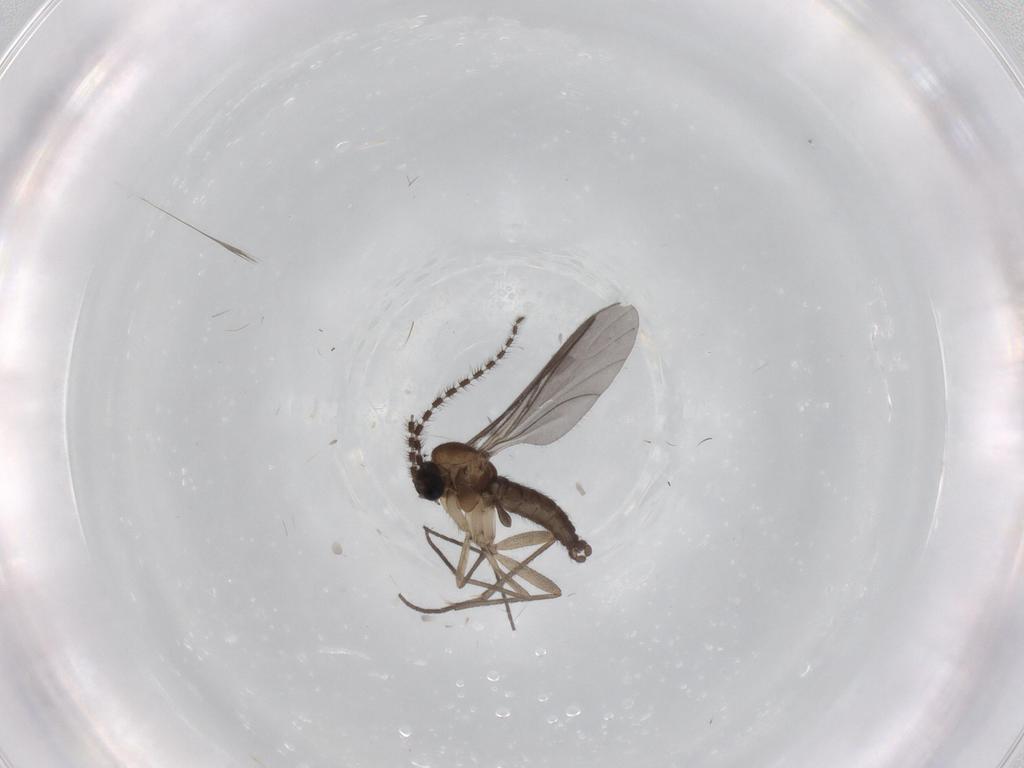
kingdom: Animalia
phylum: Arthropoda
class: Insecta
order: Diptera
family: Sciaridae
